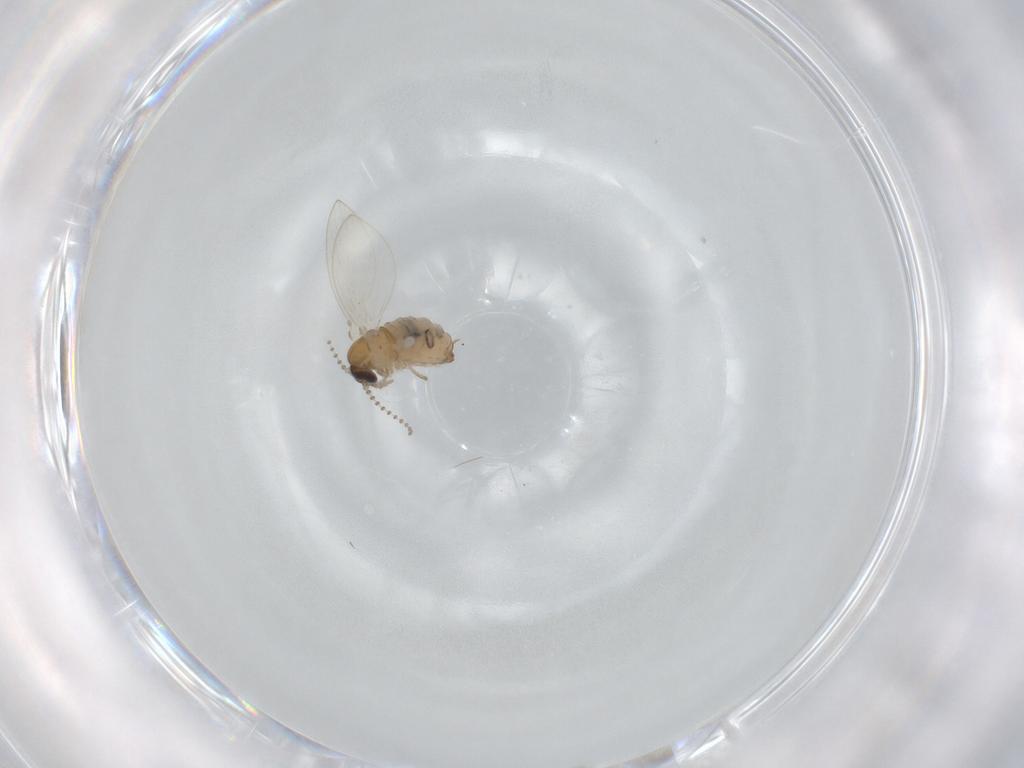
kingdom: Animalia
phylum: Arthropoda
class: Insecta
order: Diptera
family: Psychodidae
